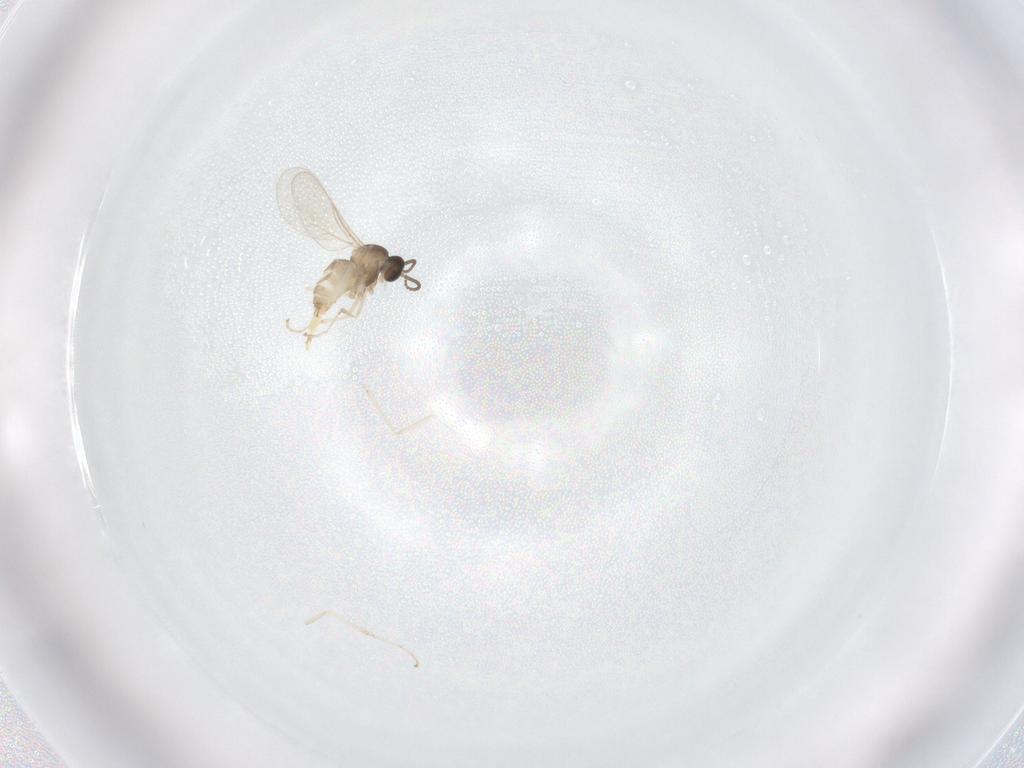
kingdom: Animalia
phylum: Arthropoda
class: Insecta
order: Diptera
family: Cecidomyiidae
